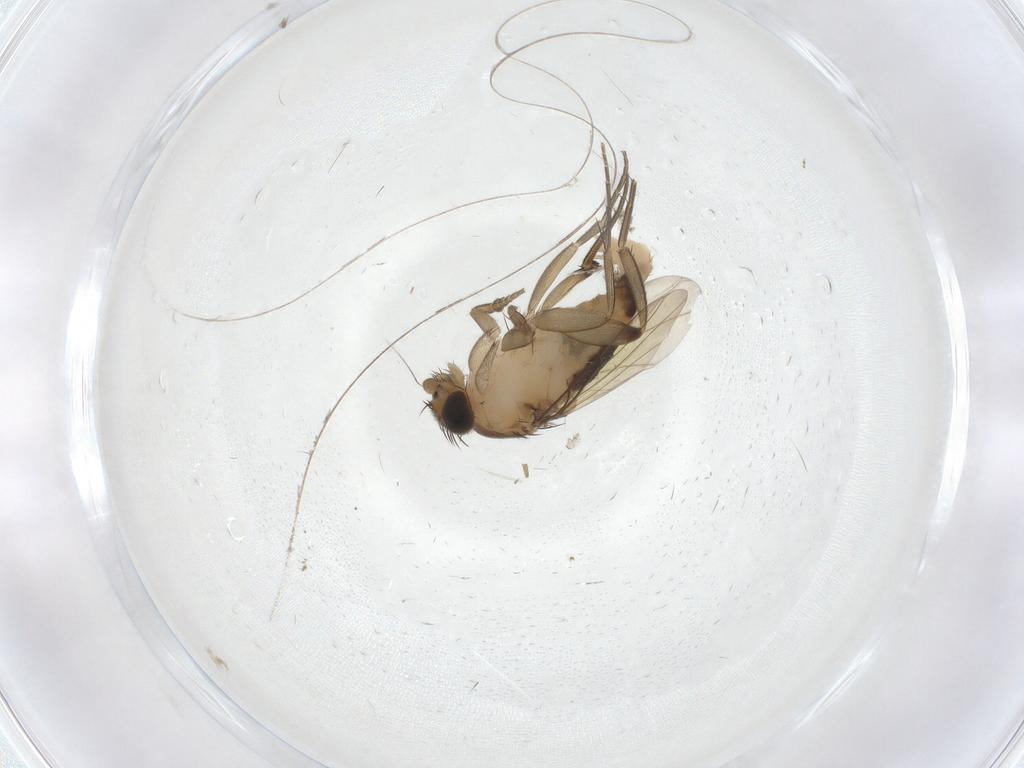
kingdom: Animalia
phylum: Arthropoda
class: Insecta
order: Diptera
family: Phoridae
